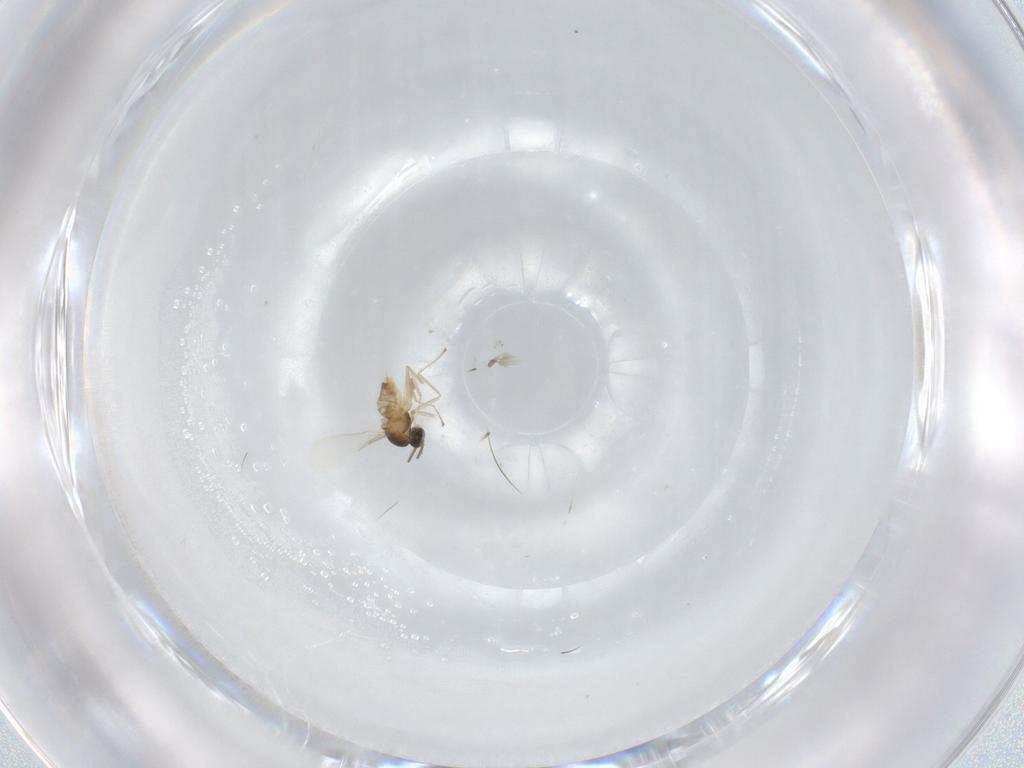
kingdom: Animalia
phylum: Arthropoda
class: Insecta
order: Diptera
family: Cecidomyiidae
